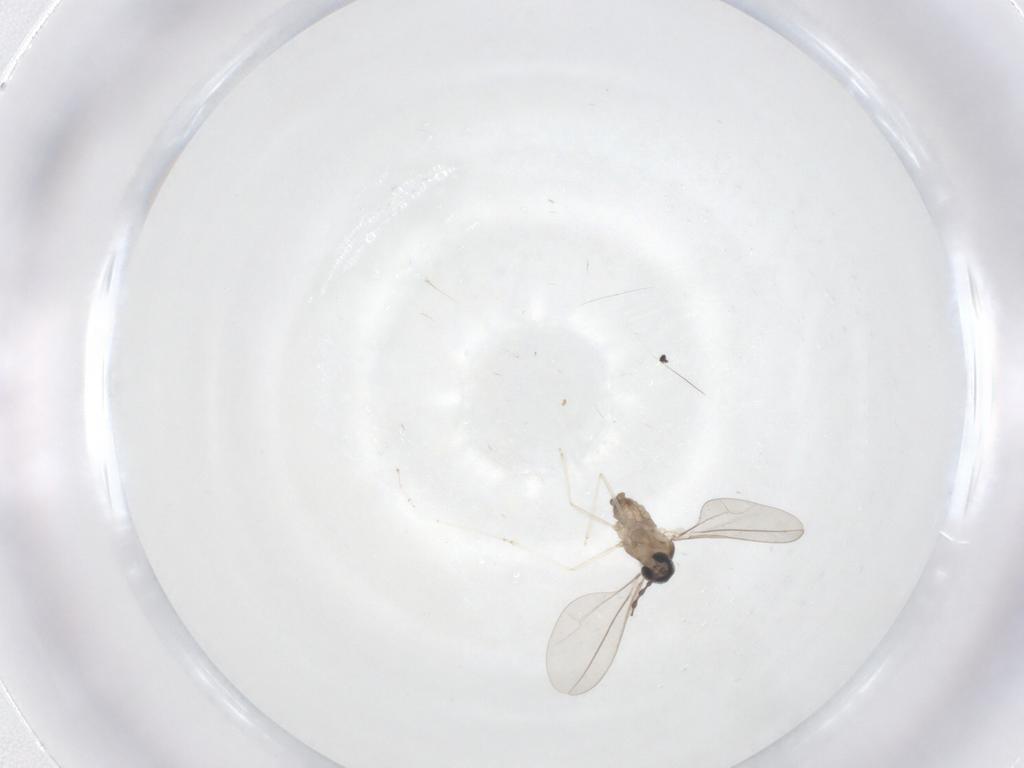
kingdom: Animalia
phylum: Arthropoda
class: Insecta
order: Diptera
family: Cecidomyiidae
